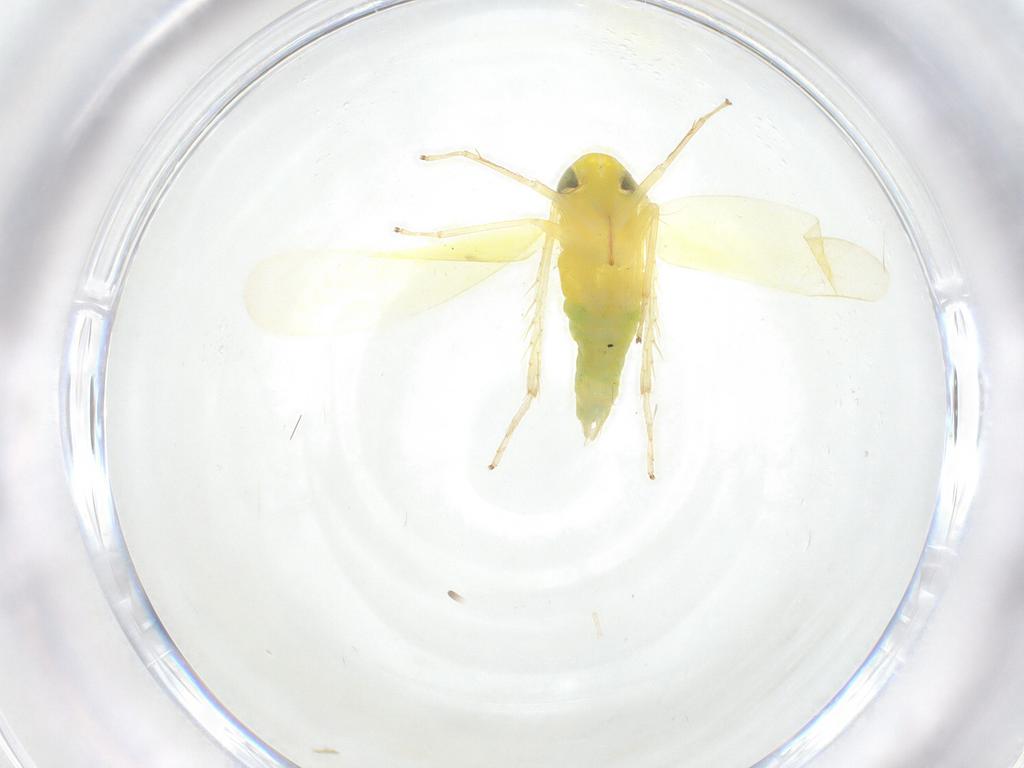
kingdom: Animalia
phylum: Arthropoda
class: Insecta
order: Hemiptera
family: Cicadellidae
